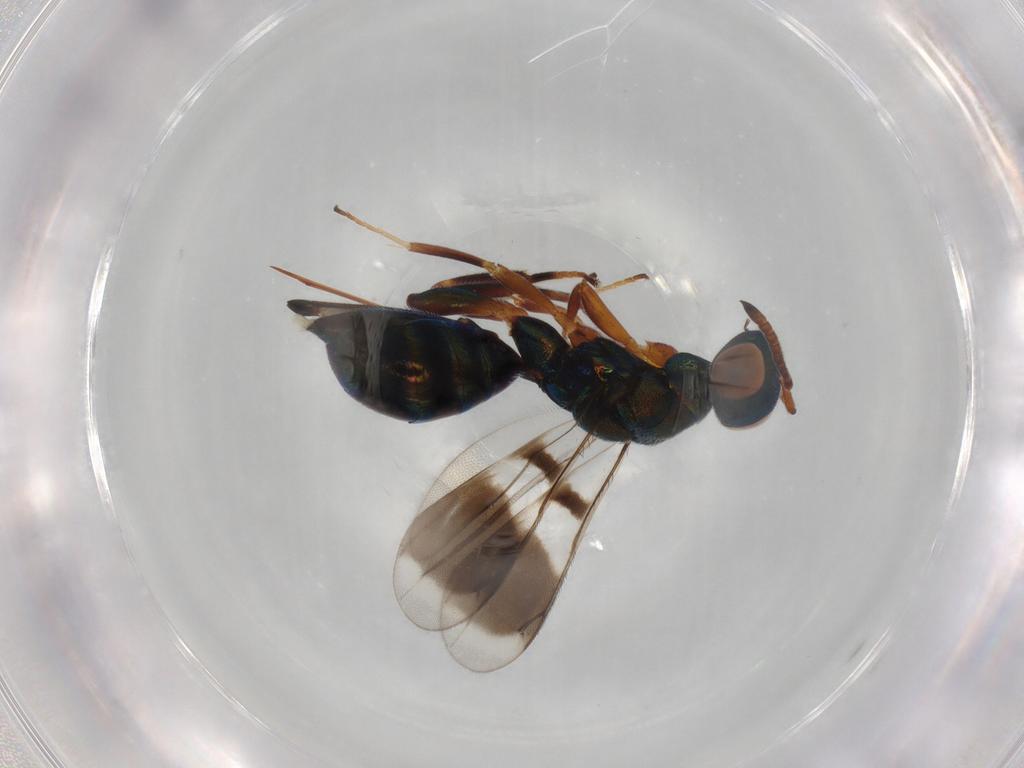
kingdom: Animalia
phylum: Arthropoda
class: Insecta
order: Hymenoptera
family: Cleonyminae
